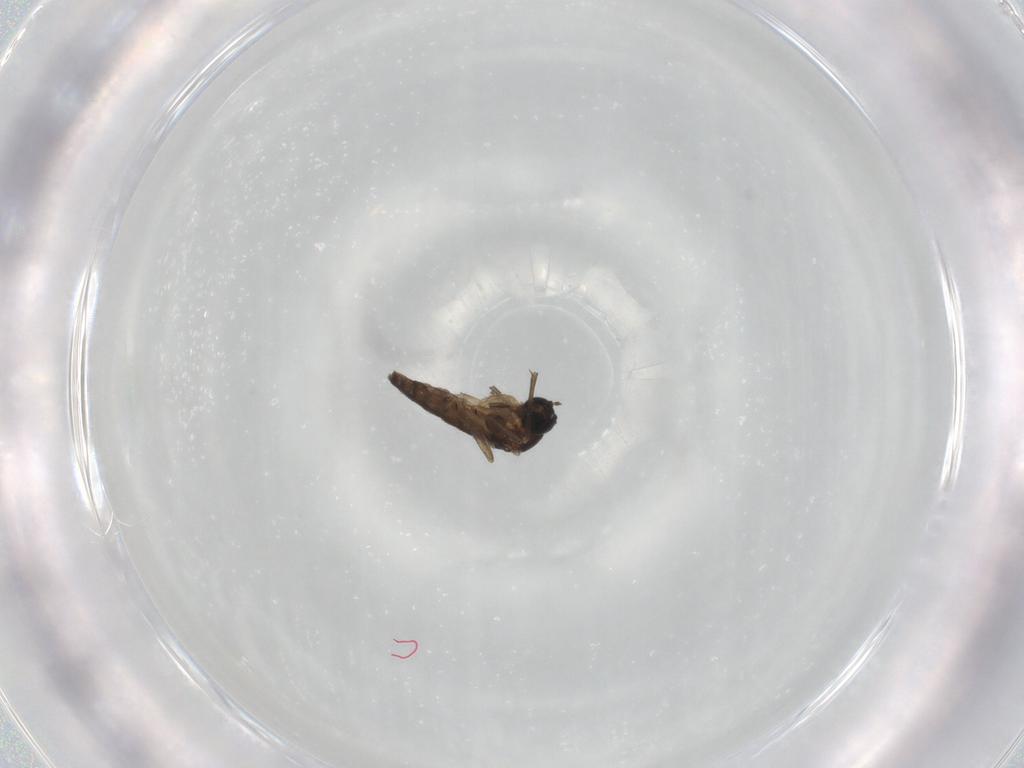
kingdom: Animalia
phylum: Arthropoda
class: Insecta
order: Diptera
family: Sciaridae
